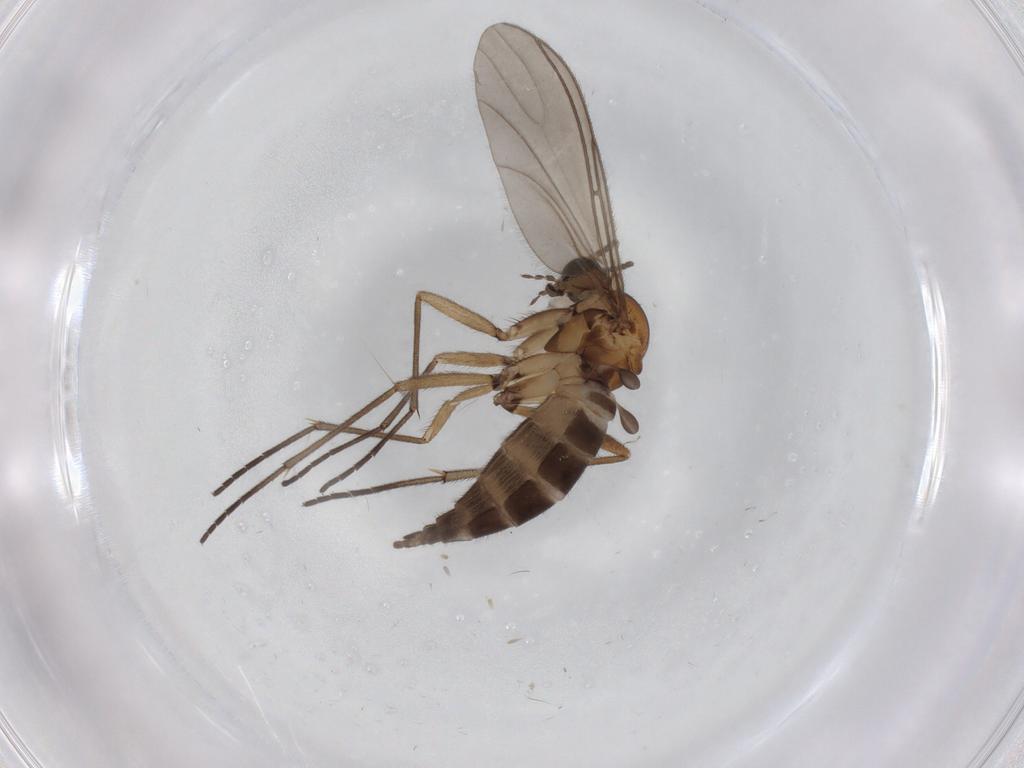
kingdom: Animalia
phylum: Arthropoda
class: Insecta
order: Diptera
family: Sciaridae
